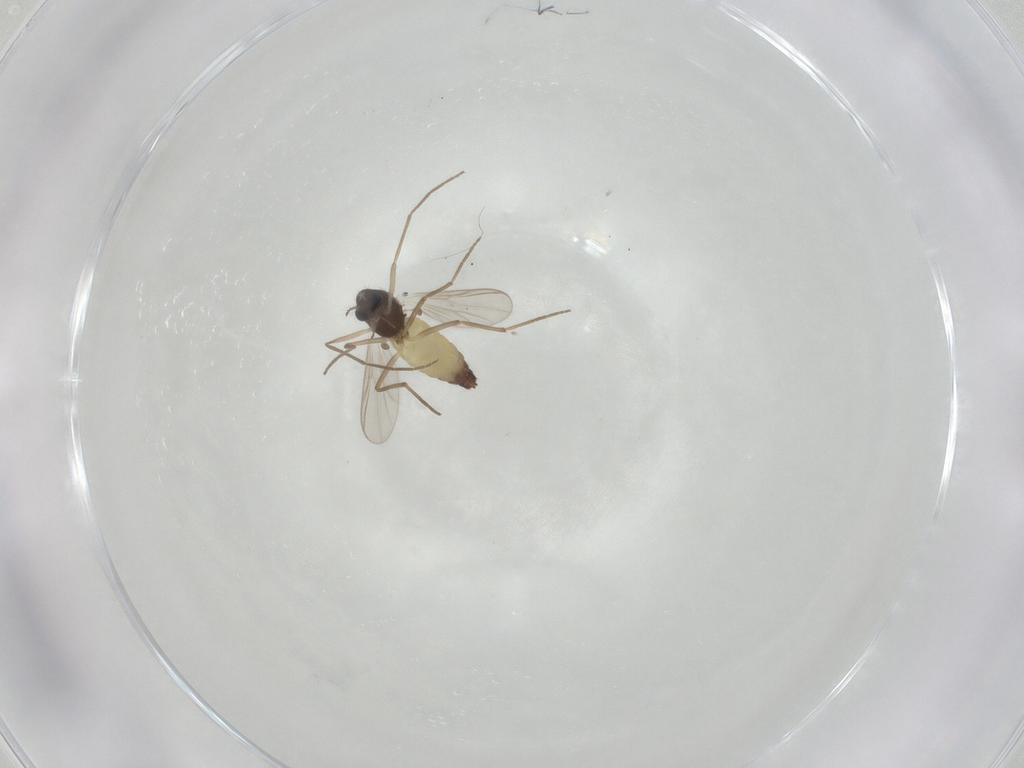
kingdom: Animalia
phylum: Arthropoda
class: Insecta
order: Diptera
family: Chironomidae
